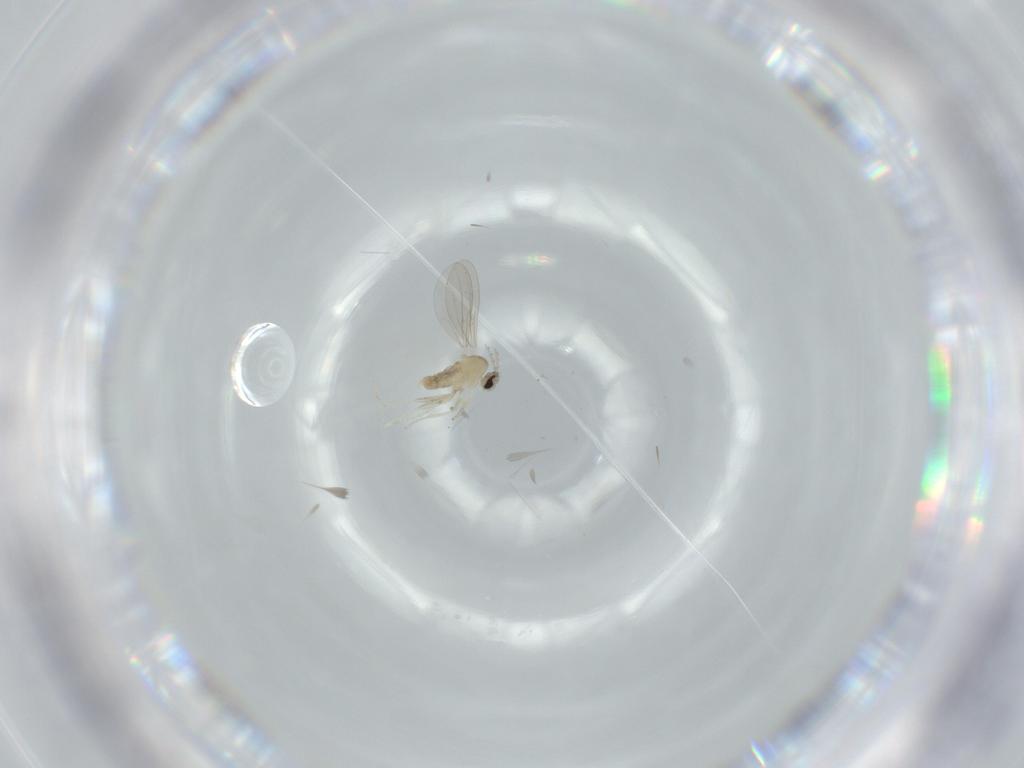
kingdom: Animalia
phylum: Arthropoda
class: Insecta
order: Diptera
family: Cecidomyiidae
